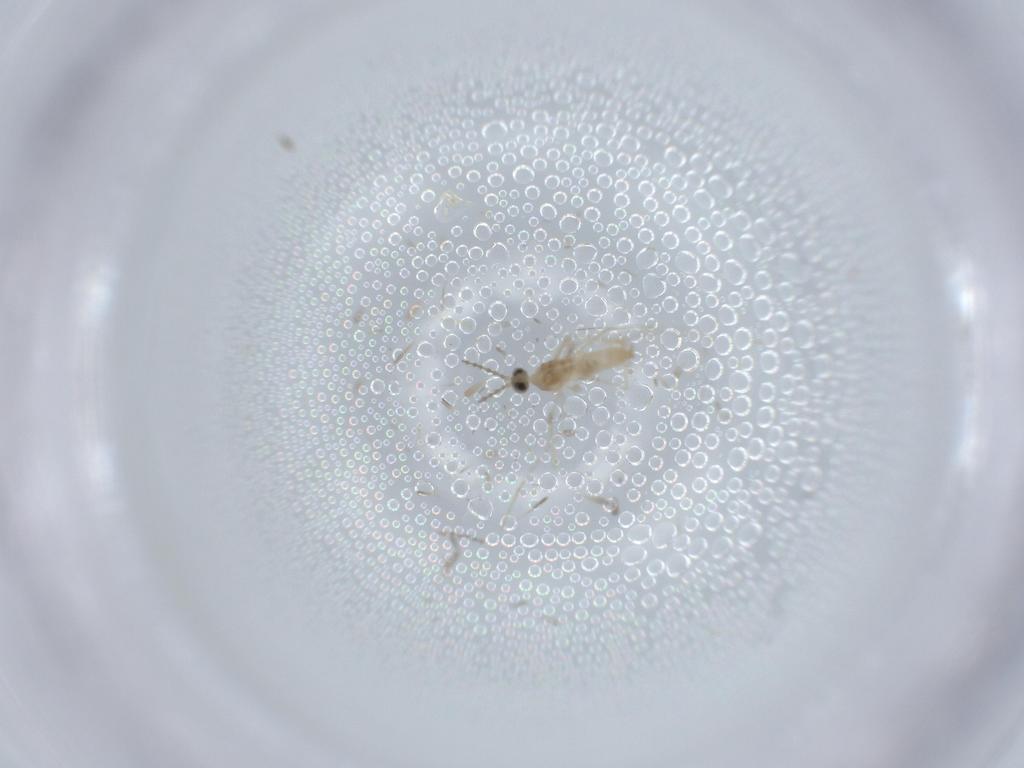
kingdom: Animalia
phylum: Arthropoda
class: Insecta
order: Diptera
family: Cecidomyiidae
